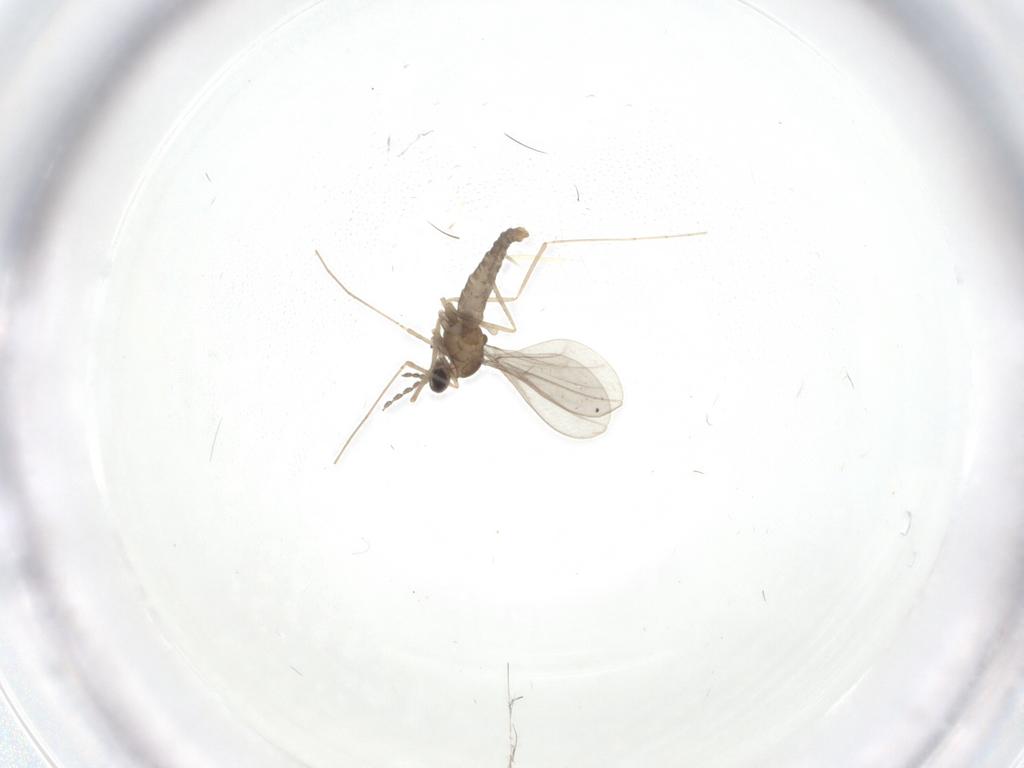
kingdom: Animalia
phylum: Arthropoda
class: Insecta
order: Diptera
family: Cecidomyiidae
